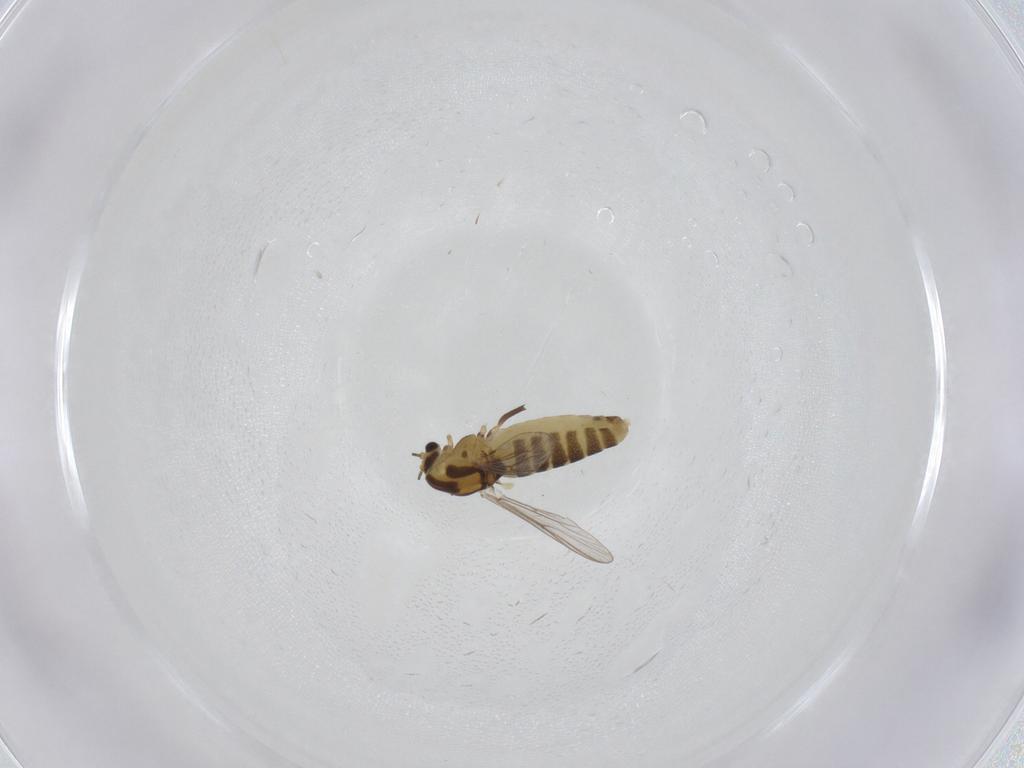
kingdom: Animalia
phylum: Arthropoda
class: Insecta
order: Diptera
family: Chironomidae
